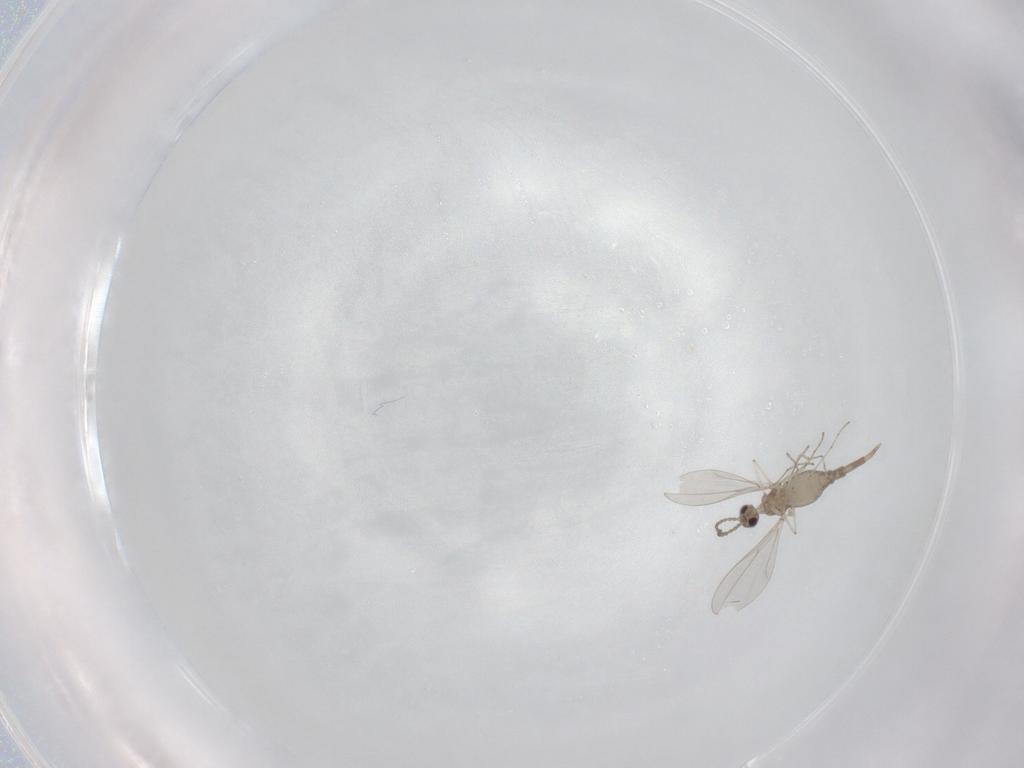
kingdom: Animalia
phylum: Arthropoda
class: Insecta
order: Diptera
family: Cecidomyiidae
